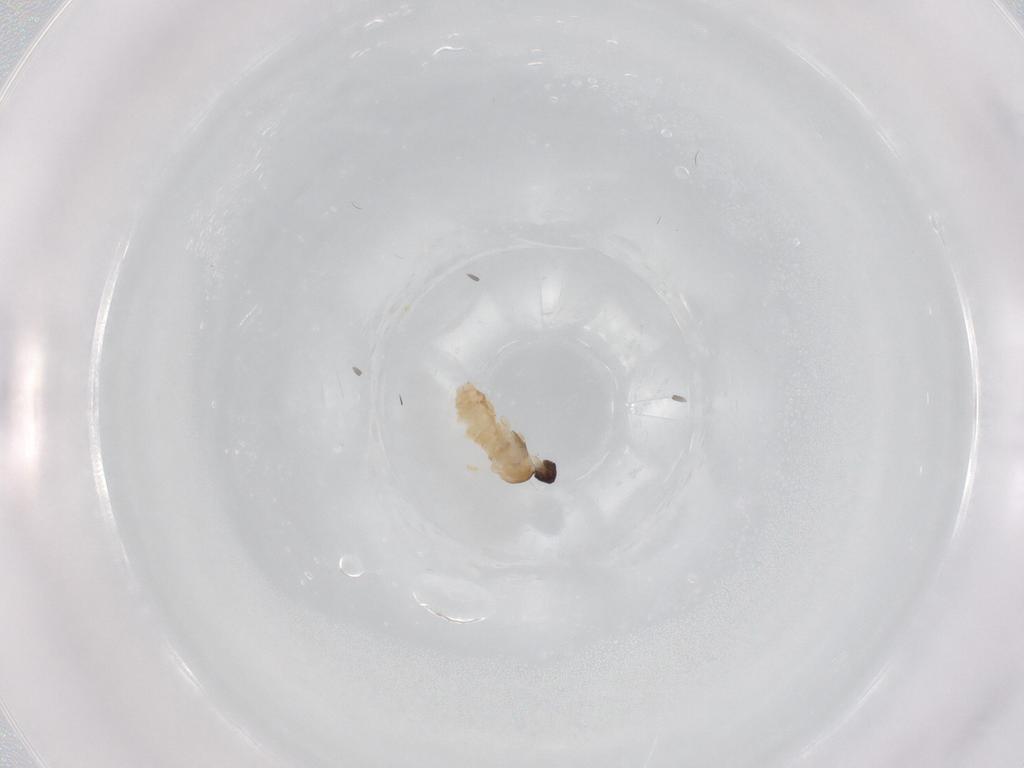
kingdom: Animalia
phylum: Arthropoda
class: Insecta
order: Diptera
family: Cecidomyiidae
